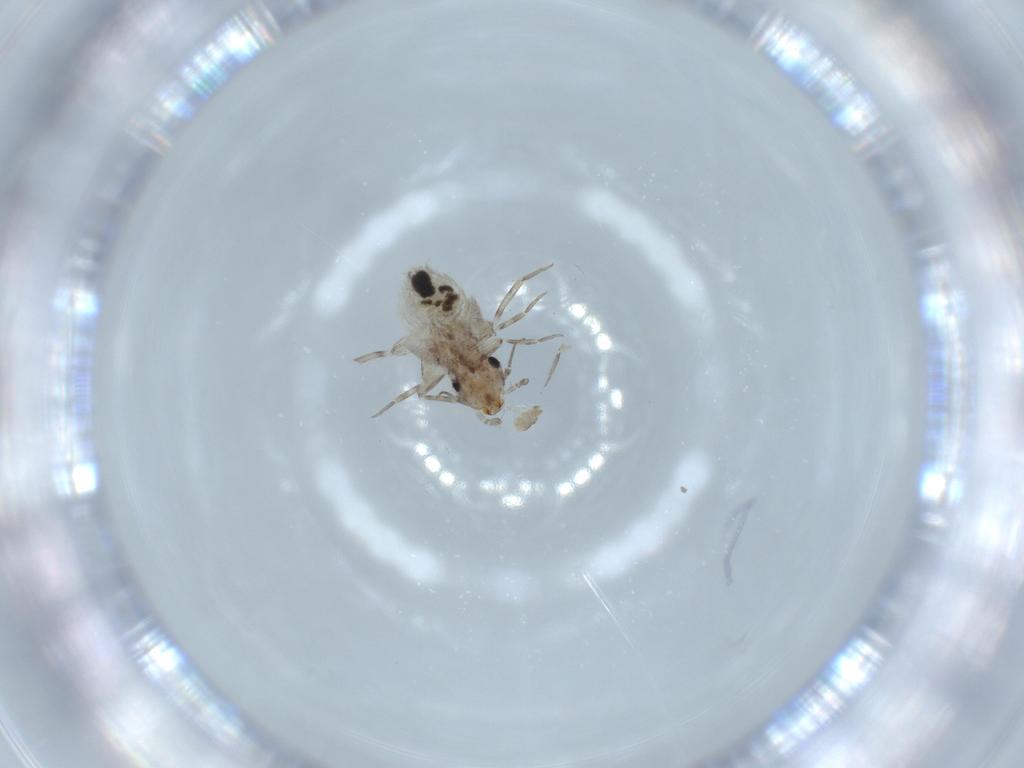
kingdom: Animalia
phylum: Arthropoda
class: Insecta
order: Psocodea
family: Lepidopsocidae
